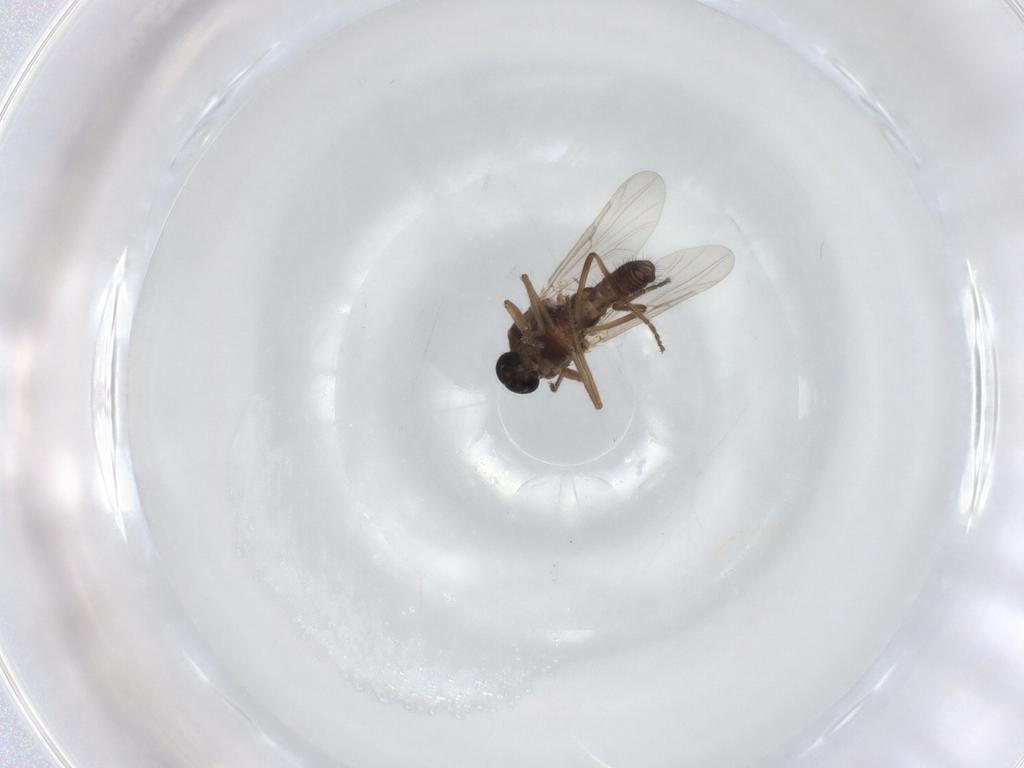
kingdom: Animalia
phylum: Arthropoda
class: Insecta
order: Diptera
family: Ceratopogonidae
